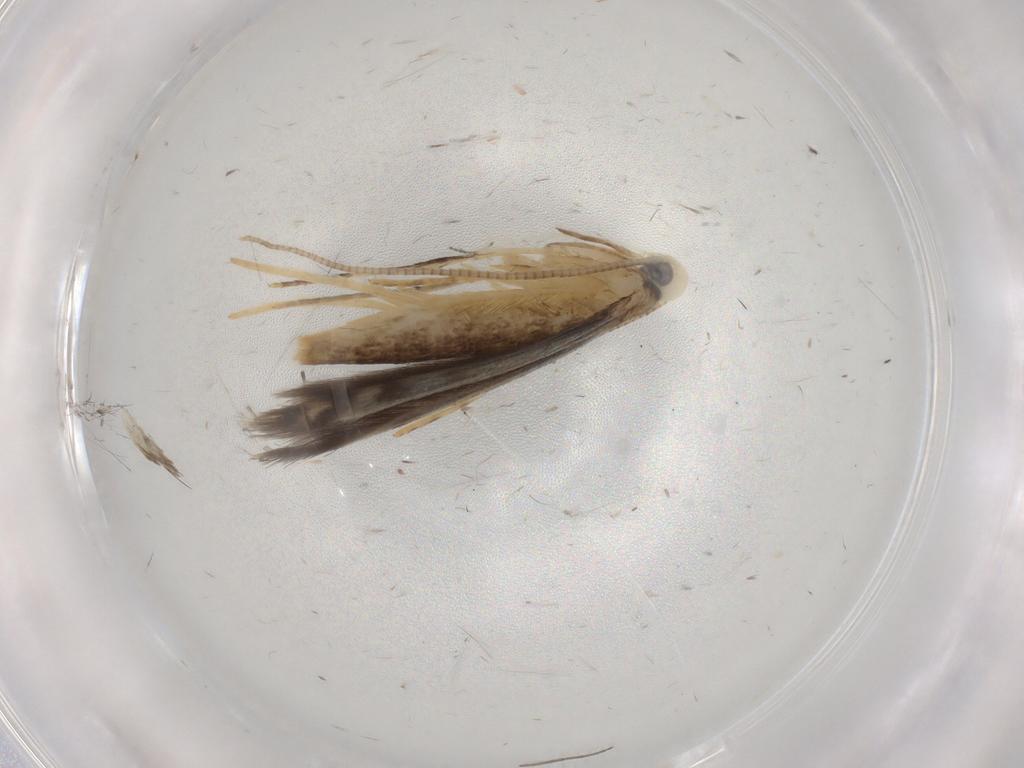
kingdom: Animalia
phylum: Arthropoda
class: Insecta
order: Lepidoptera
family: Gracillariidae
